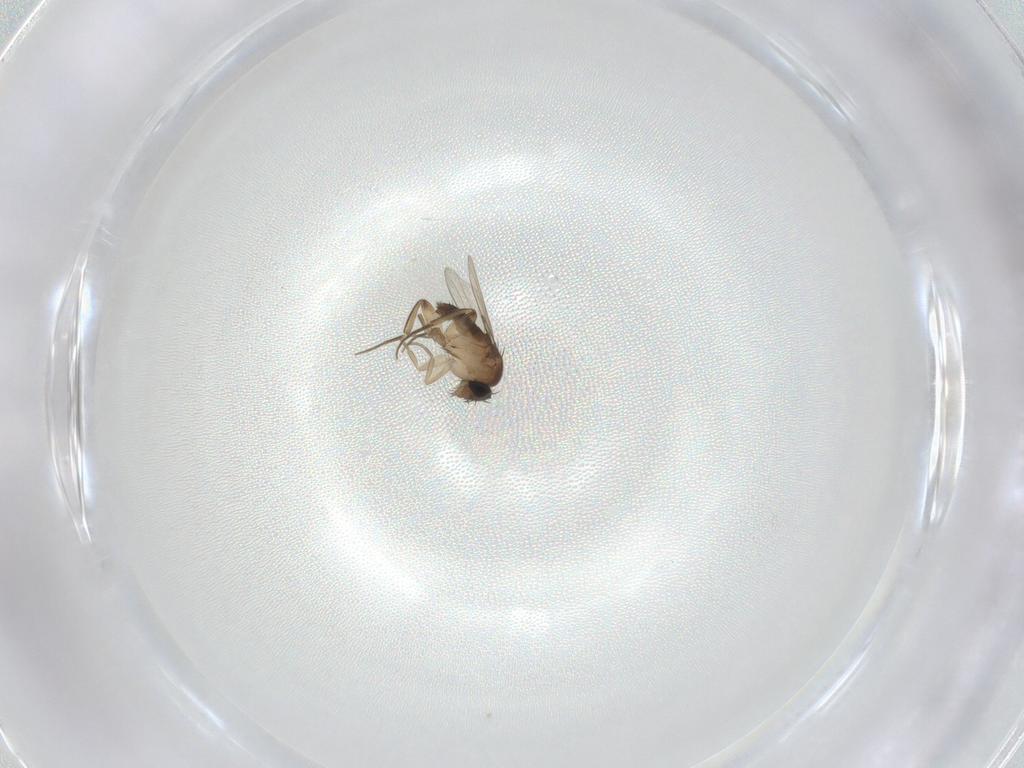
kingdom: Animalia
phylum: Arthropoda
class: Insecta
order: Diptera
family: Phoridae
